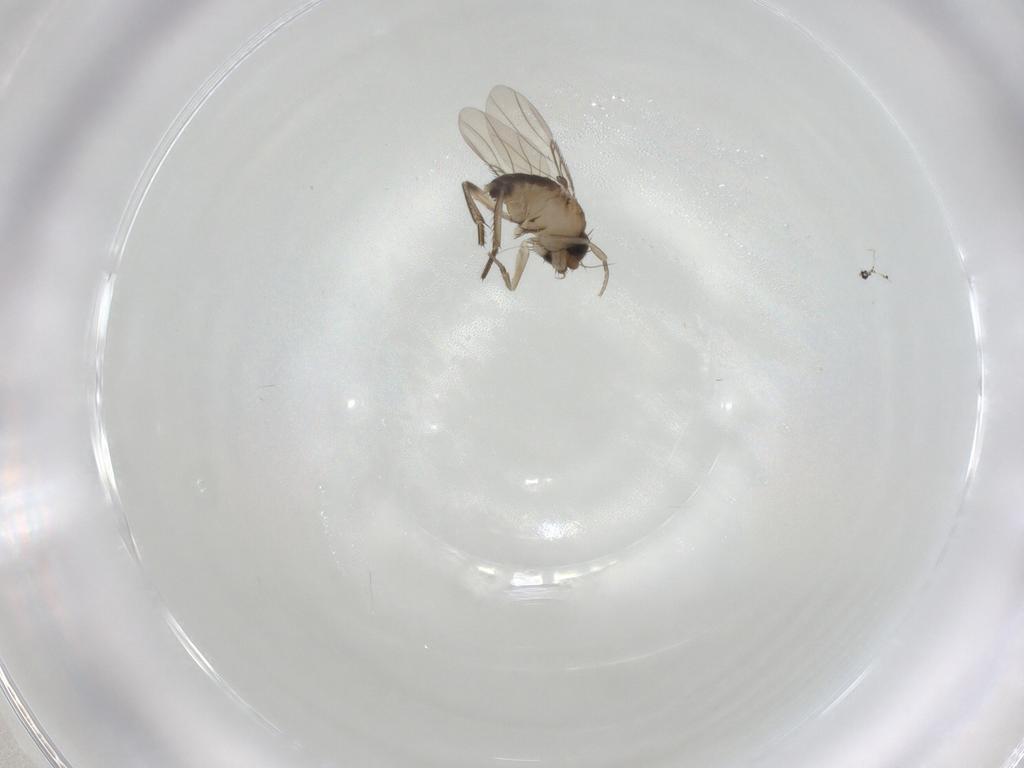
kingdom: Animalia
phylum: Arthropoda
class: Insecta
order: Diptera
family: Phoridae
